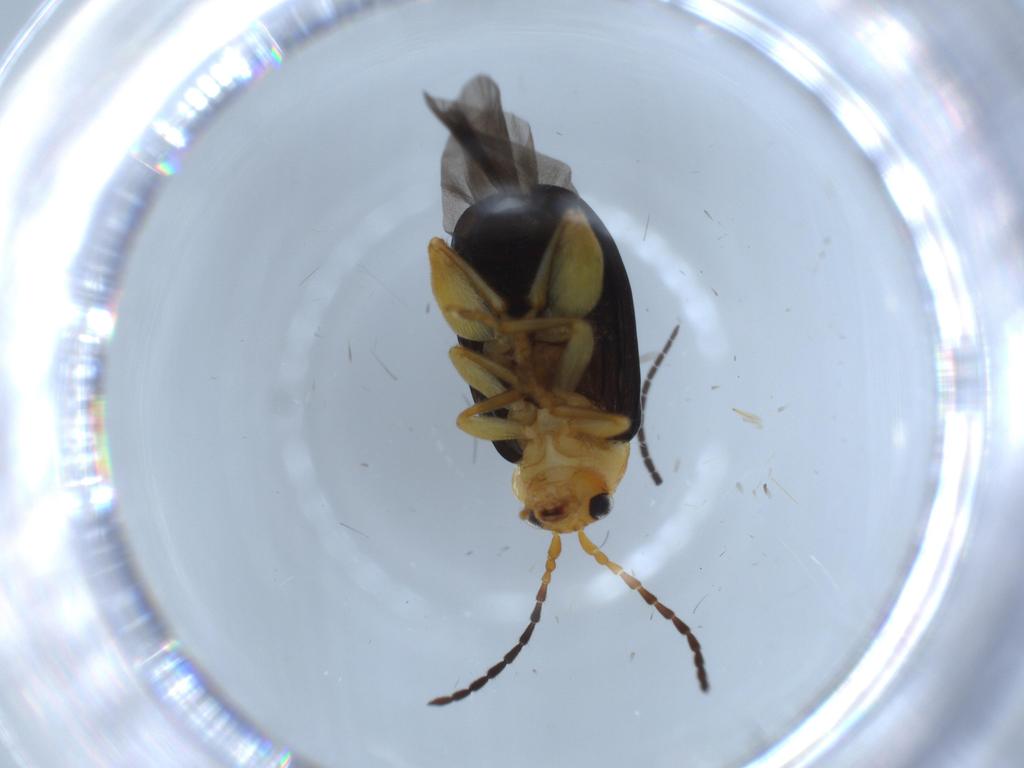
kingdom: Animalia
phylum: Arthropoda
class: Insecta
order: Coleoptera
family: Chrysomelidae
